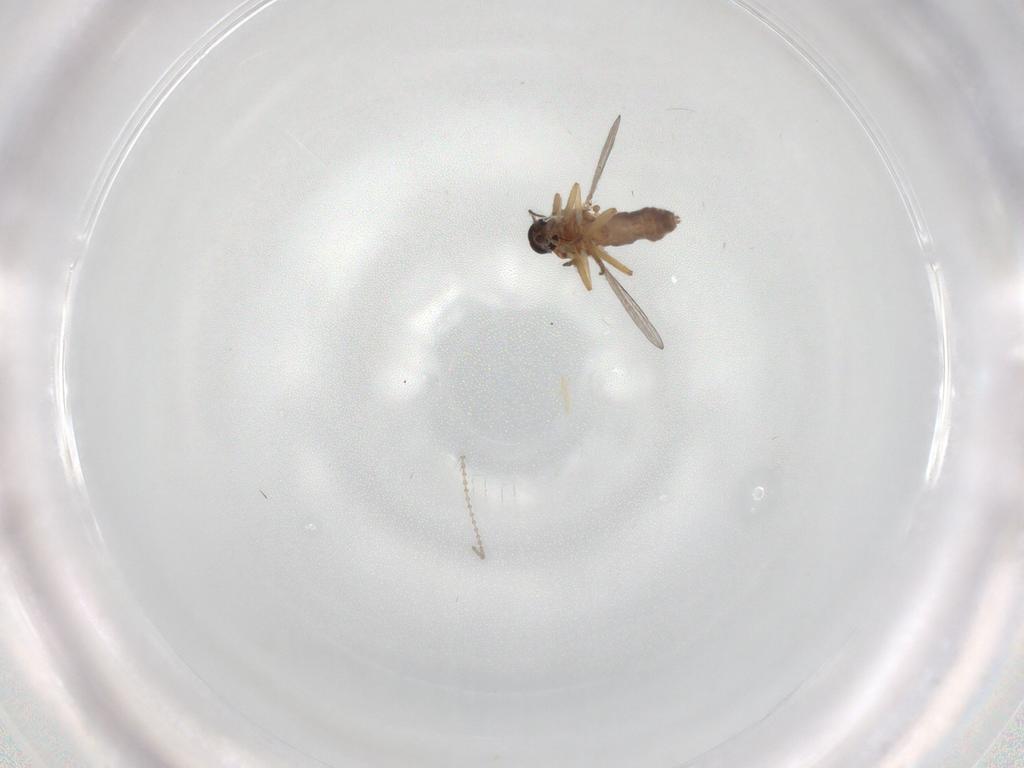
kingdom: Animalia
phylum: Arthropoda
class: Insecta
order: Diptera
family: Ceratopogonidae
